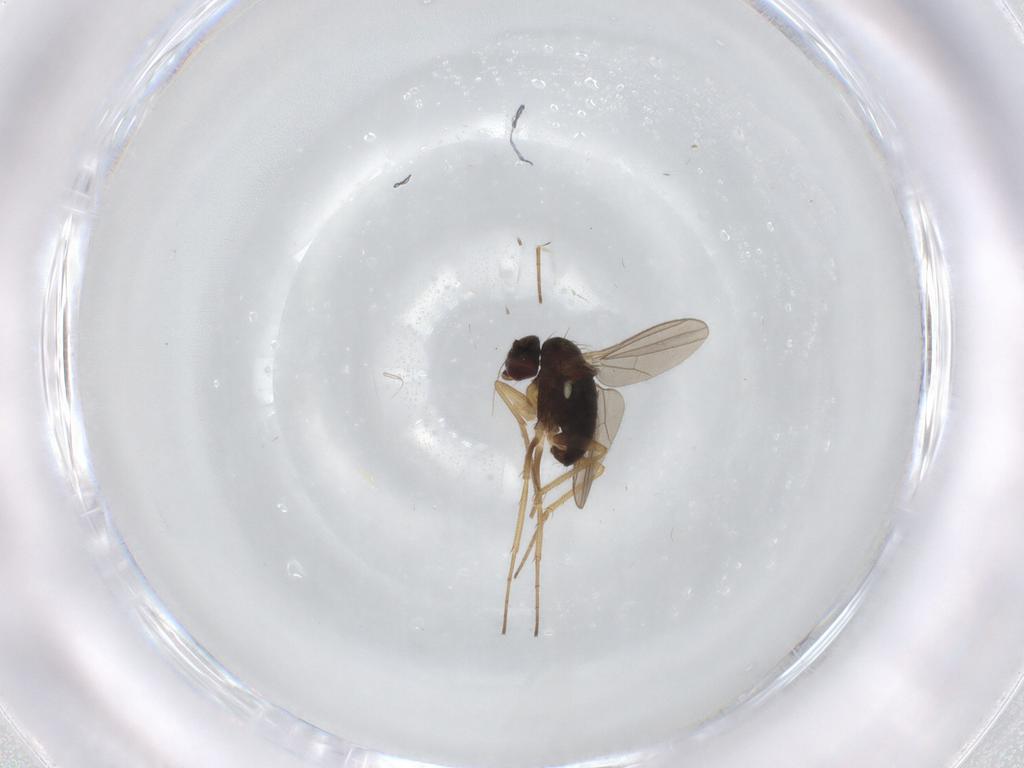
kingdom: Animalia
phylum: Arthropoda
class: Insecta
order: Diptera
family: Dolichopodidae
